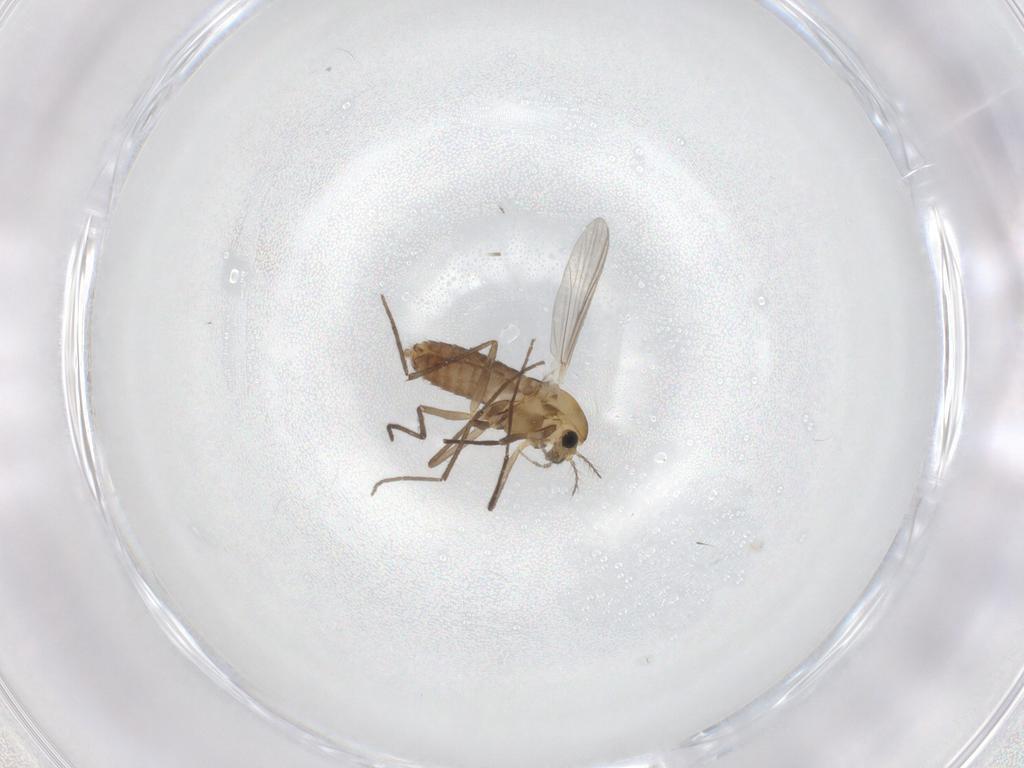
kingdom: Animalia
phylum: Arthropoda
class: Insecta
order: Diptera
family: Chironomidae
